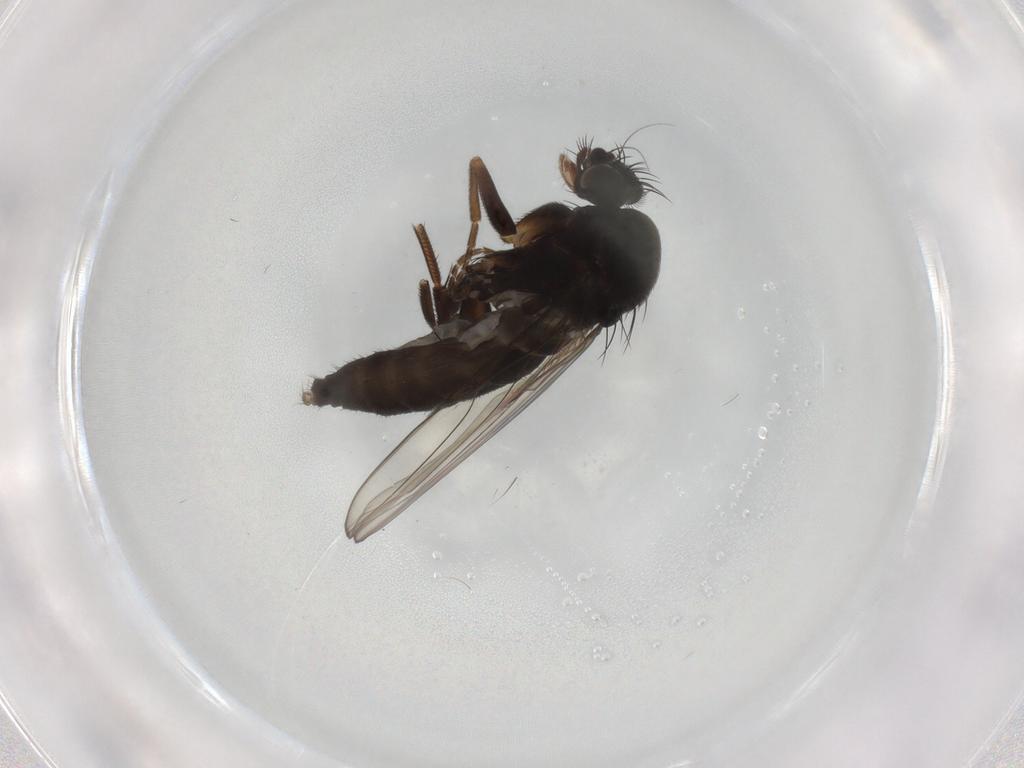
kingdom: Animalia
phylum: Arthropoda
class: Insecta
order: Diptera
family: Phoridae
